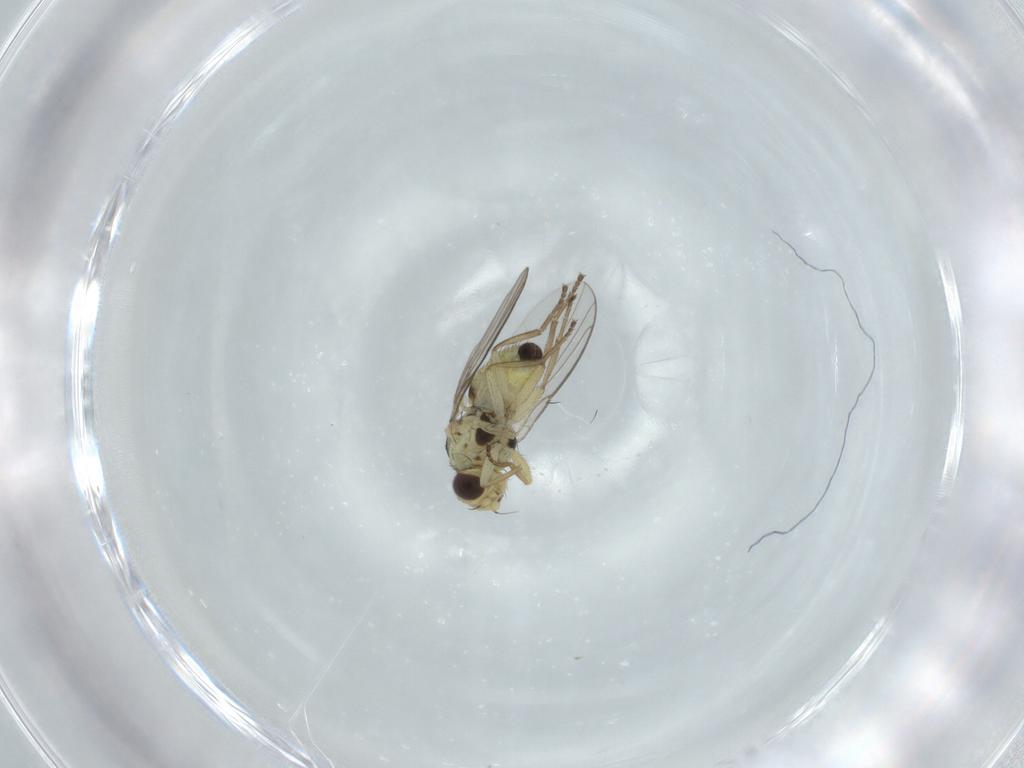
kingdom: Animalia
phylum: Arthropoda
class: Insecta
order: Diptera
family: Agromyzidae
